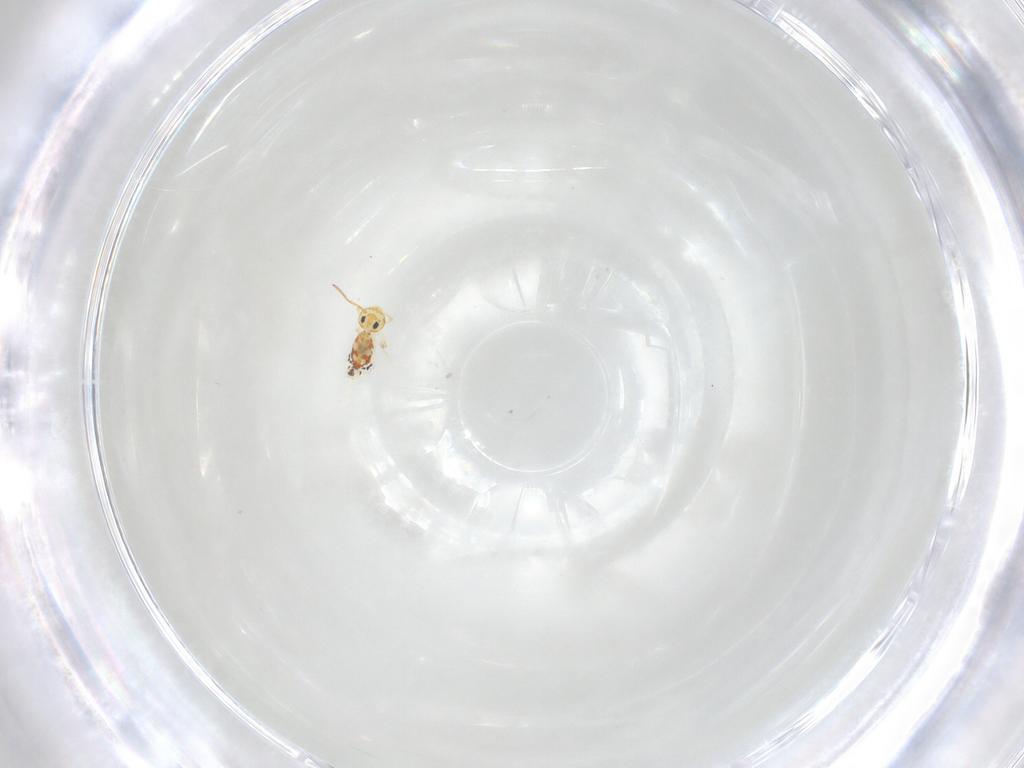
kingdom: Animalia
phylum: Arthropoda
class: Collembola
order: Symphypleona
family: Bourletiellidae
